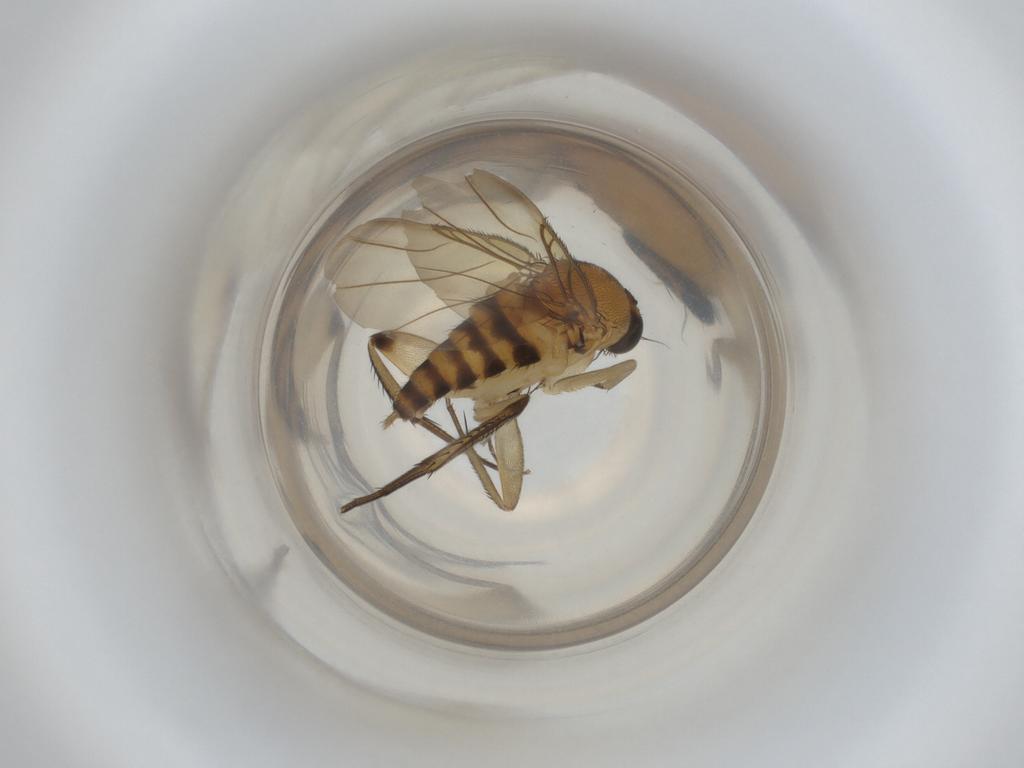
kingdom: Animalia
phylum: Arthropoda
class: Insecta
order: Diptera
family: Phoridae
